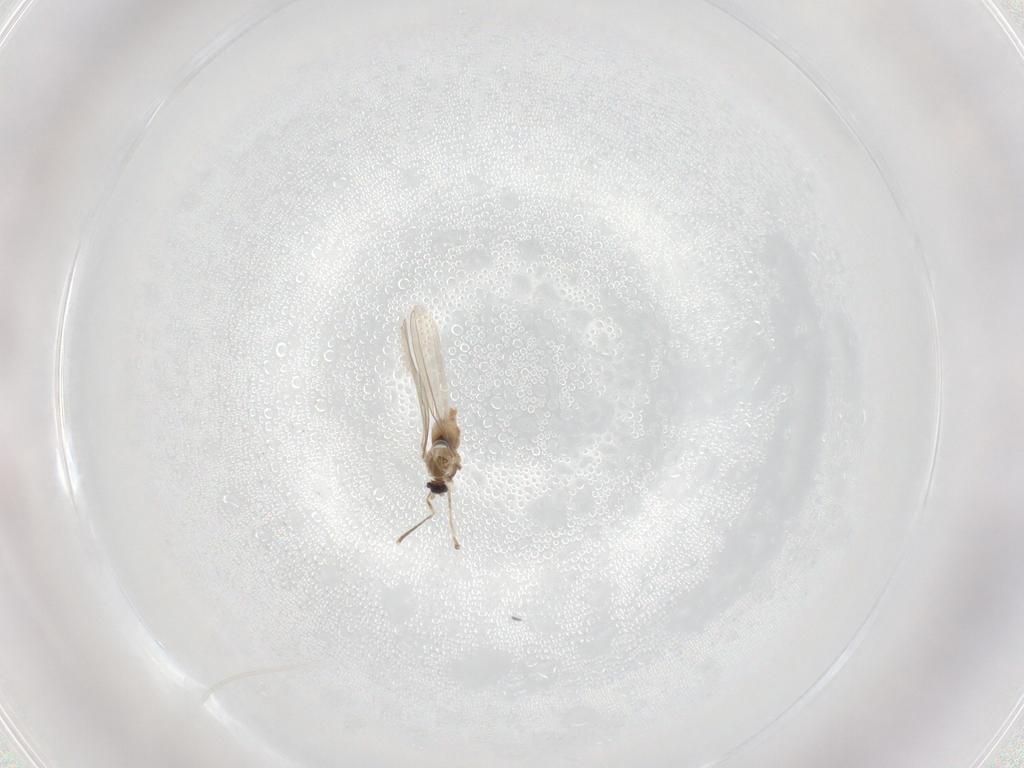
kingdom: Animalia
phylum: Arthropoda
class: Insecta
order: Diptera
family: Cecidomyiidae
